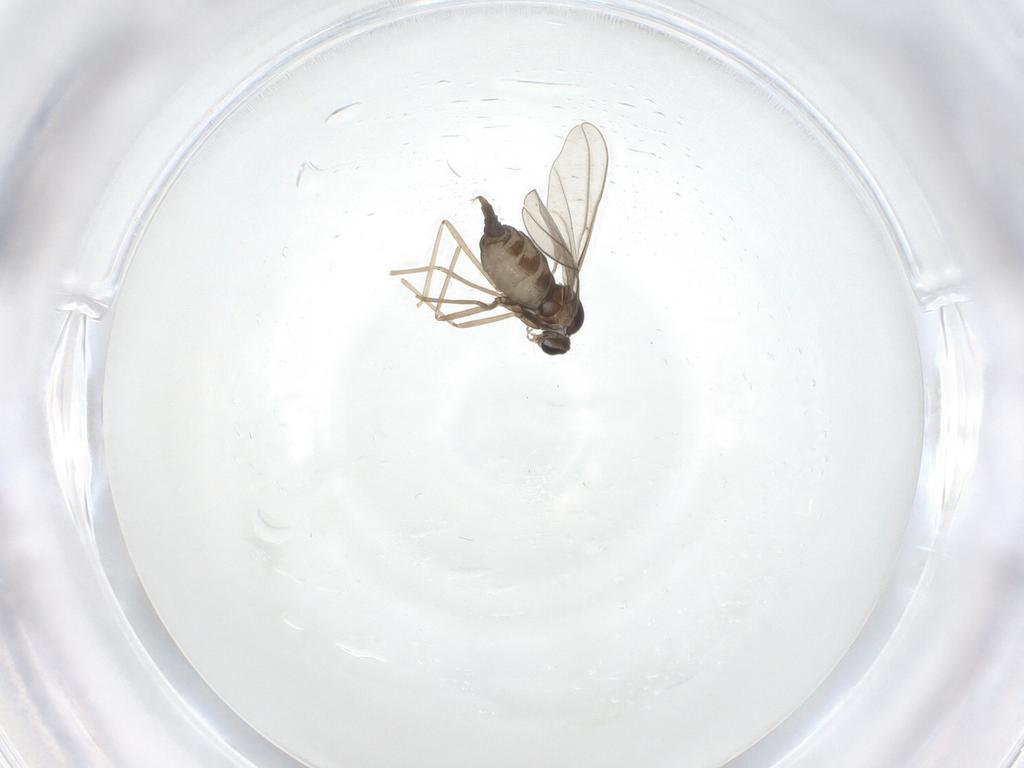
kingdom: Animalia
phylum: Arthropoda
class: Insecta
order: Diptera
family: Cecidomyiidae
